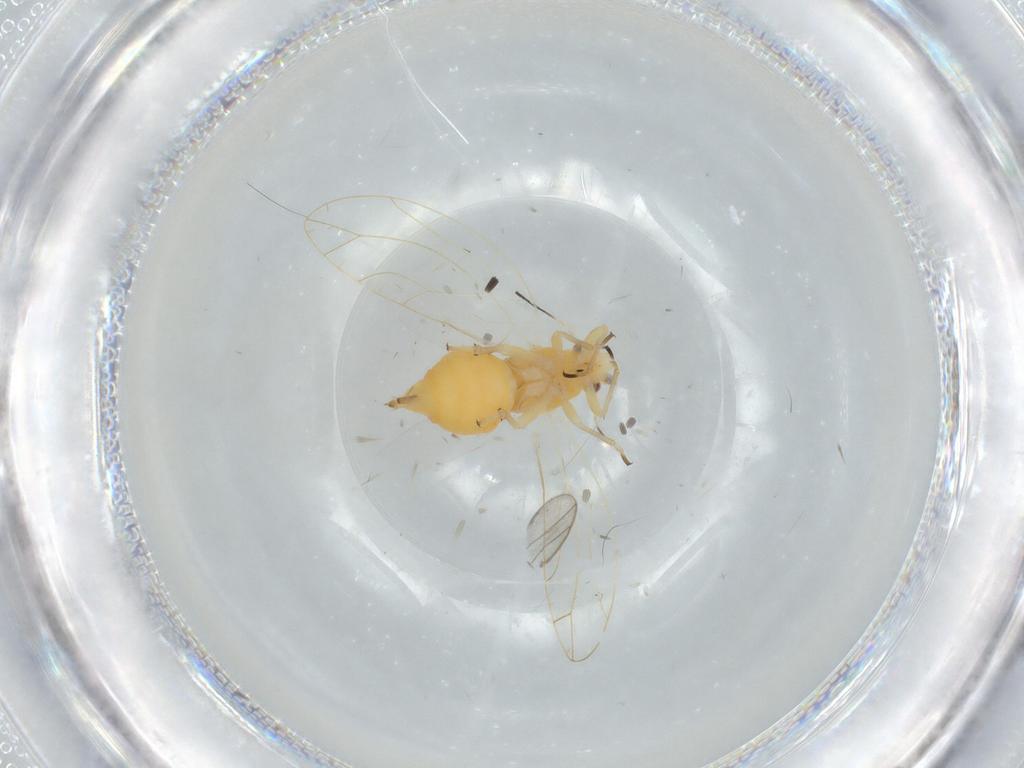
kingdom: Animalia
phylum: Arthropoda
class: Insecta
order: Hemiptera
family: Triozidae
